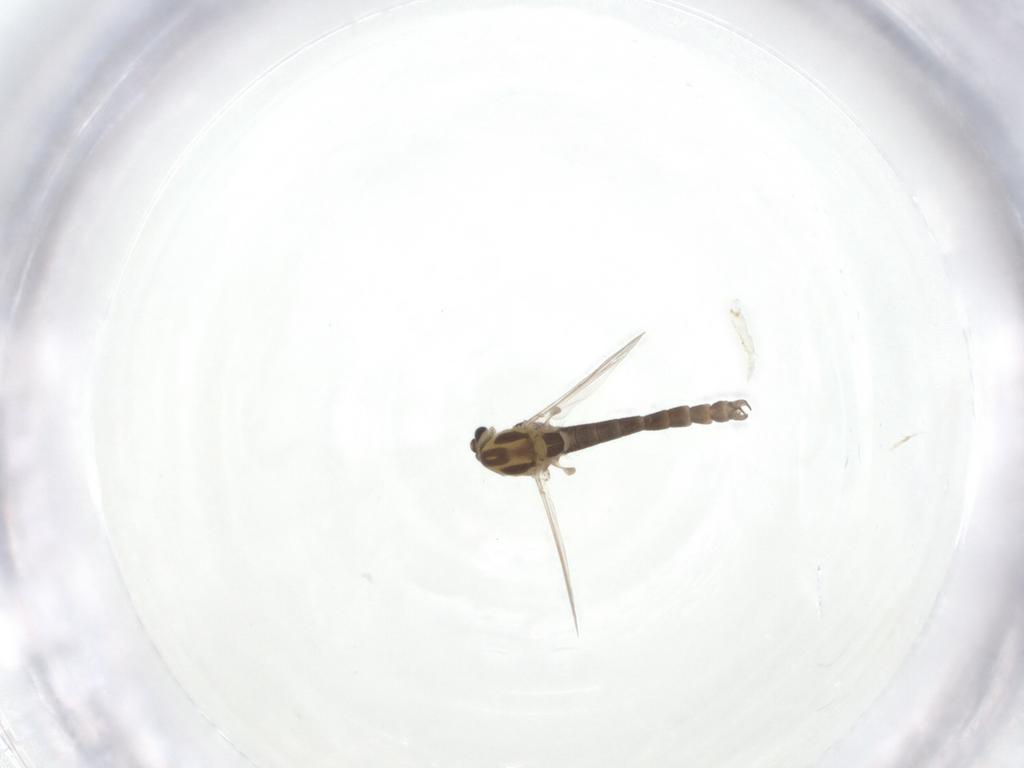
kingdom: Animalia
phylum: Arthropoda
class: Insecta
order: Diptera
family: Chironomidae
